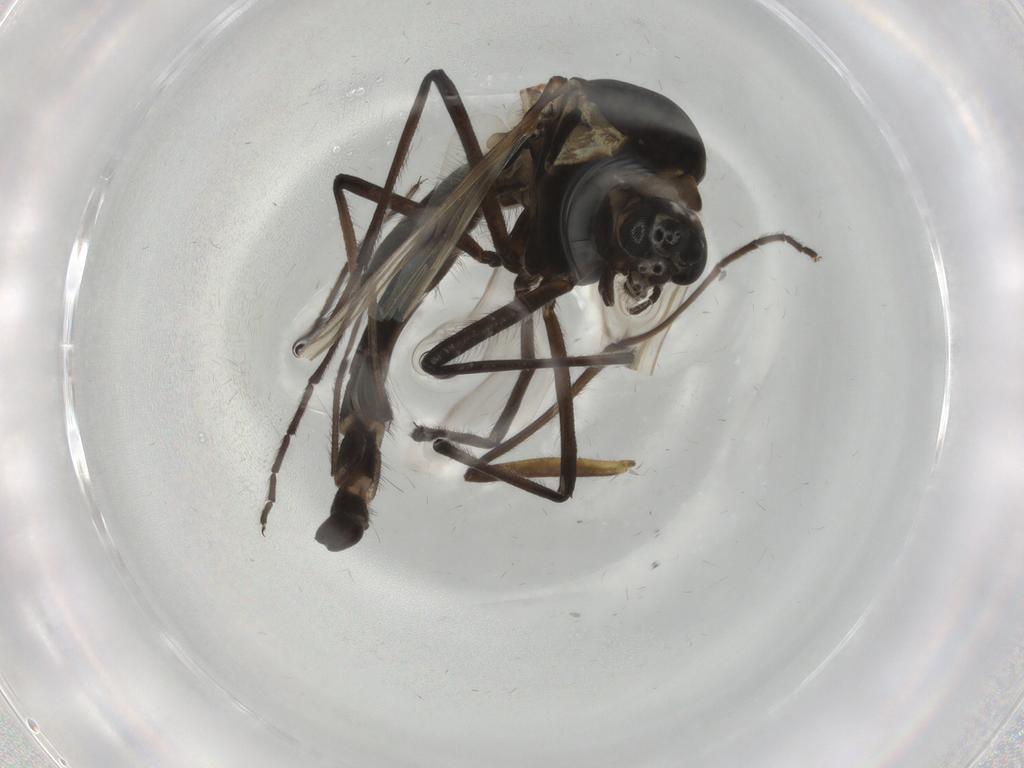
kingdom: Animalia
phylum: Arthropoda
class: Insecta
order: Diptera
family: Chironomidae
